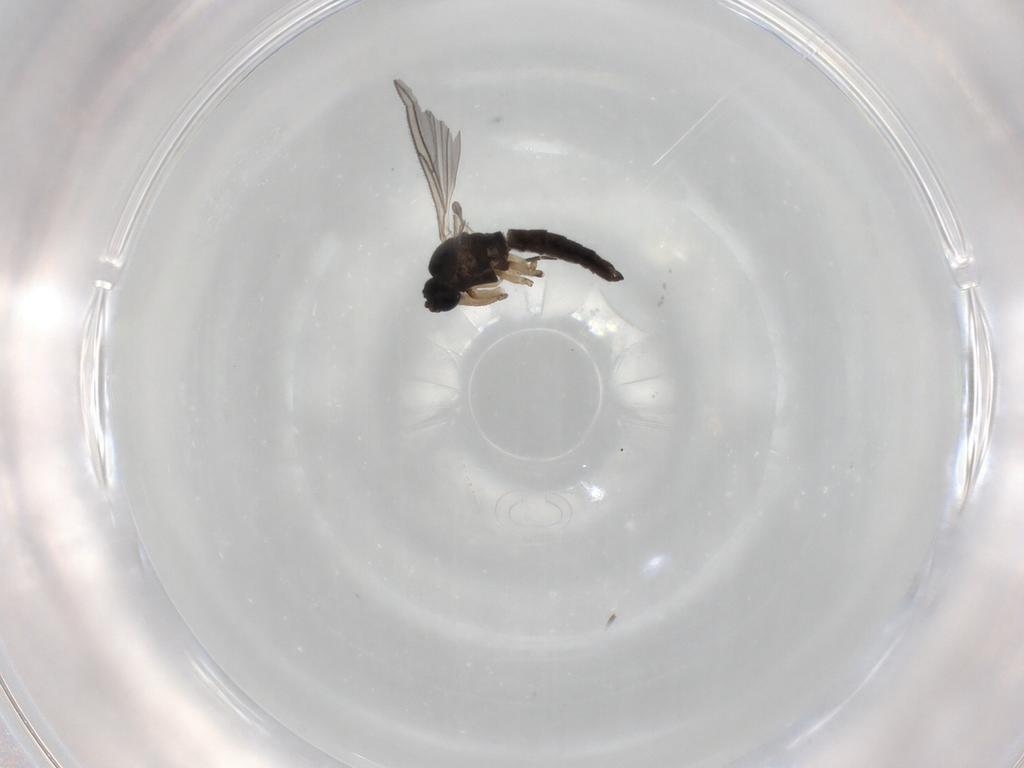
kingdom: Animalia
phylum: Arthropoda
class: Insecta
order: Diptera
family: Sciaridae
